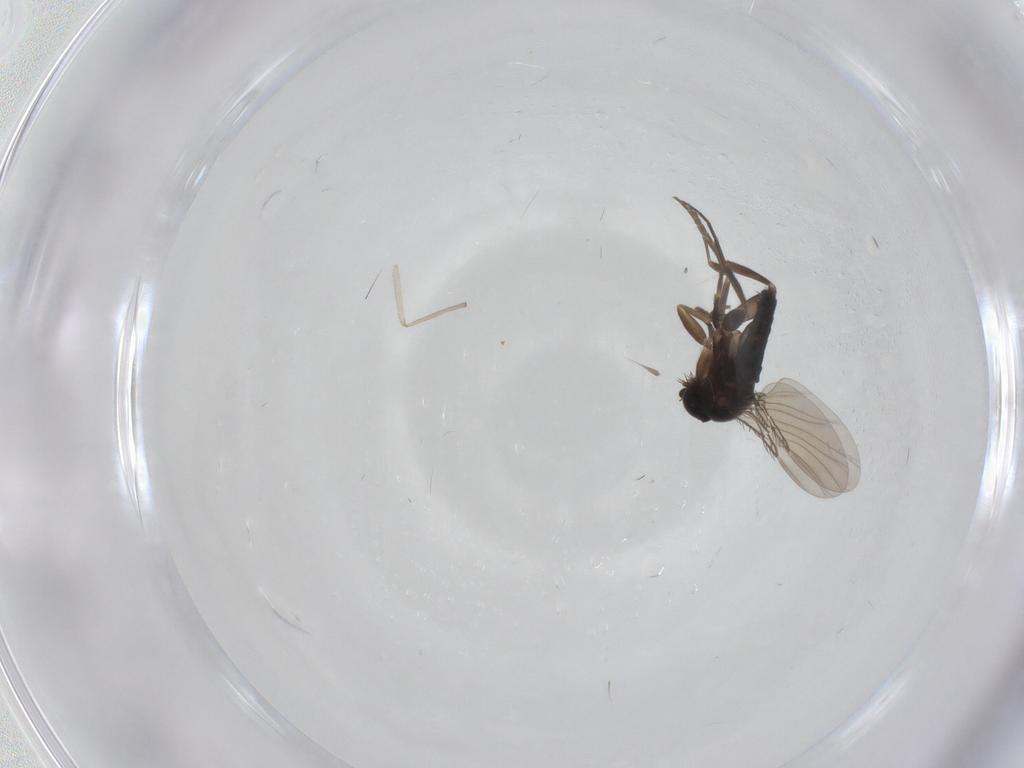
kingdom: Animalia
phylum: Arthropoda
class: Insecta
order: Diptera
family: Chironomidae
